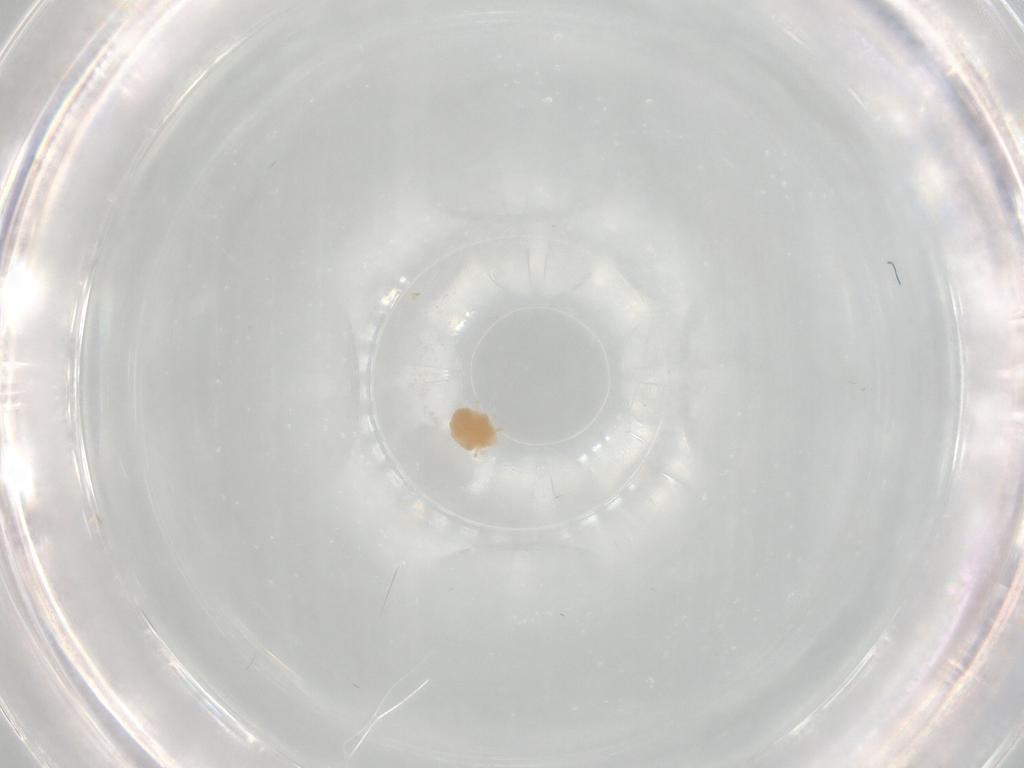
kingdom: Animalia
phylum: Arthropoda
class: Arachnida
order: Trombidiformes
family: Microtrombidiidae
